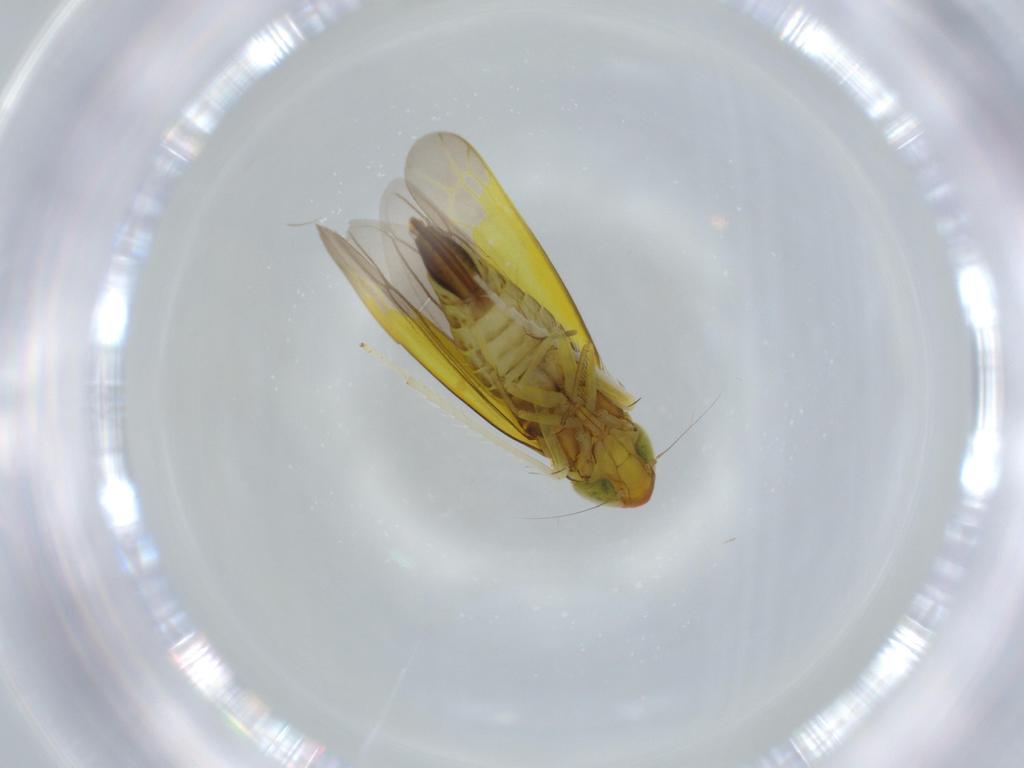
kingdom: Animalia
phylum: Arthropoda
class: Insecta
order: Hemiptera
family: Cicadellidae
